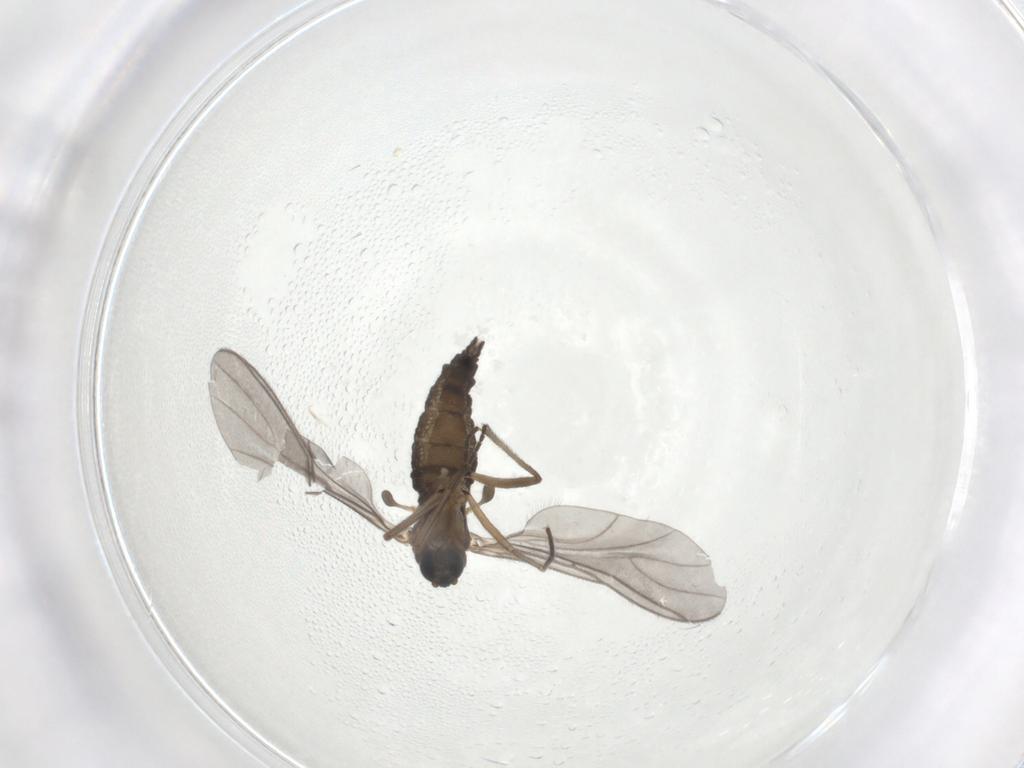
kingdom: Animalia
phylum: Arthropoda
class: Insecta
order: Diptera
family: Sciaridae
